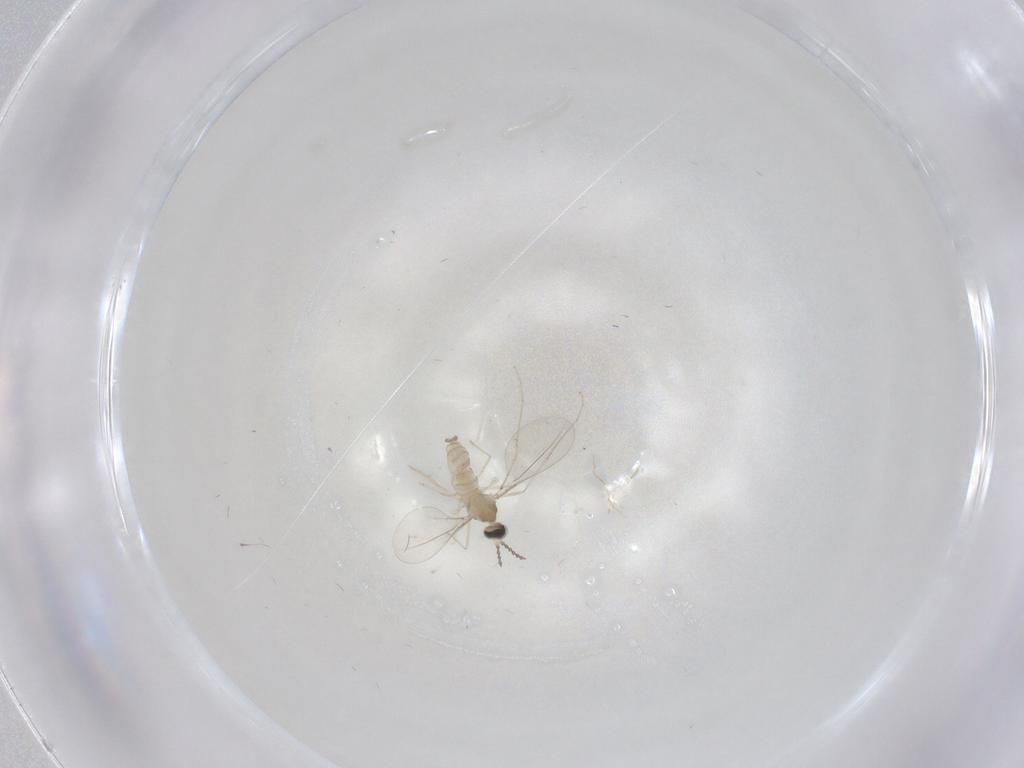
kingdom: Animalia
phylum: Arthropoda
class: Insecta
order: Diptera
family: Cecidomyiidae
